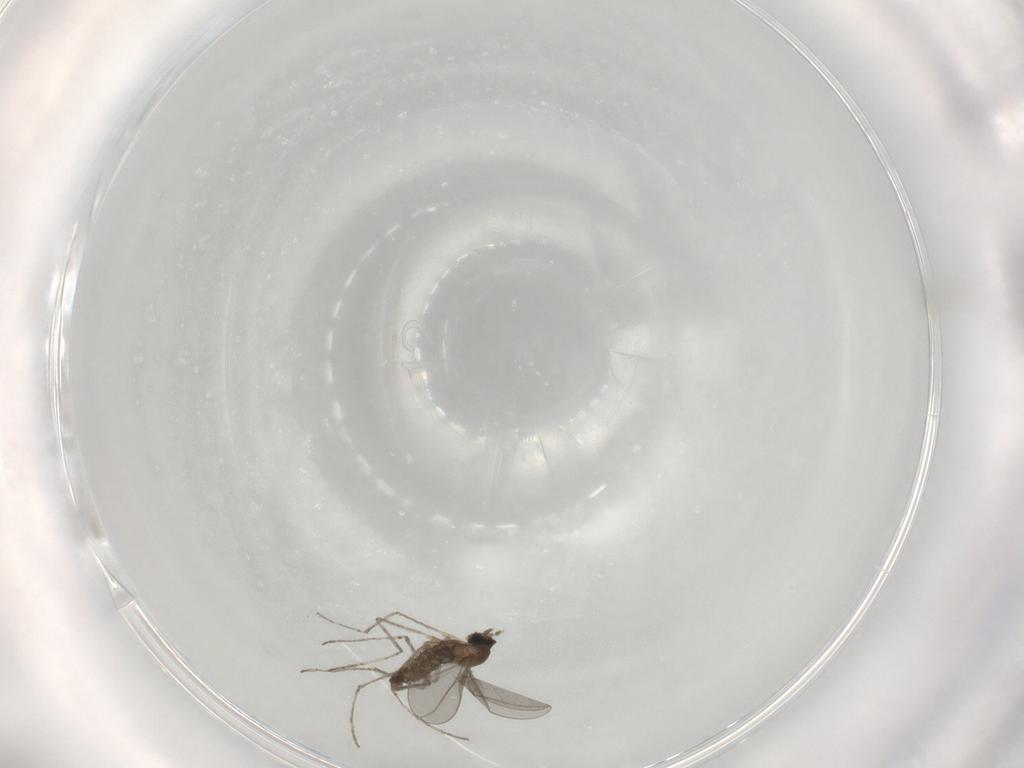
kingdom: Animalia
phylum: Arthropoda
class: Insecta
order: Diptera
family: Cecidomyiidae
